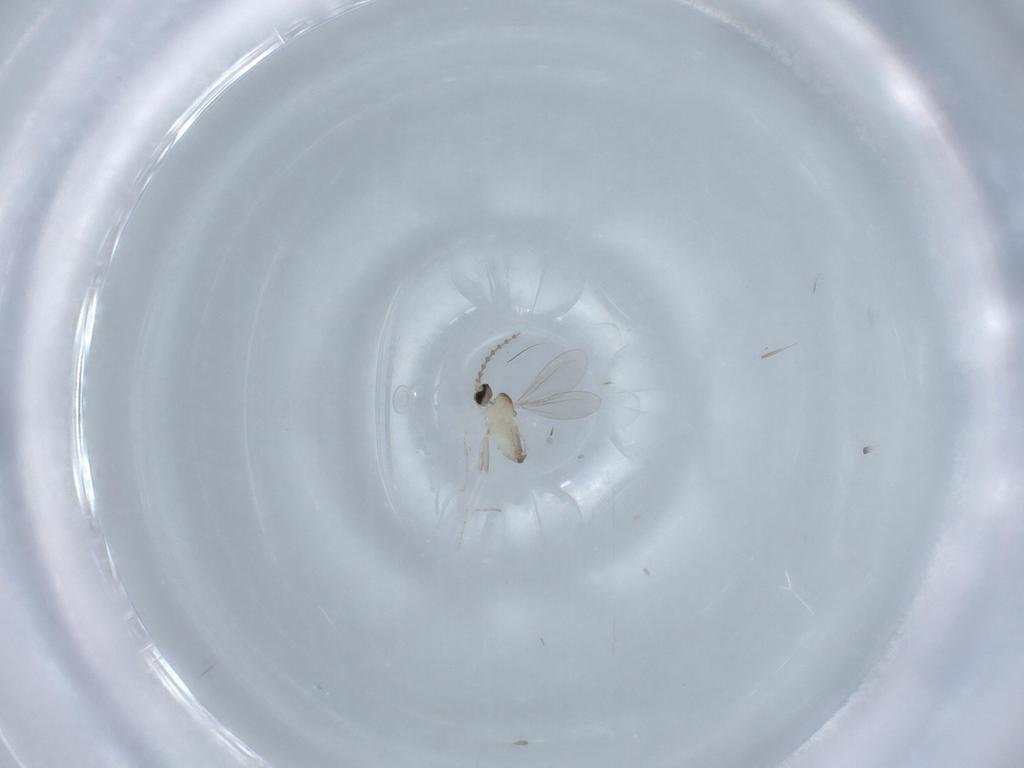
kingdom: Animalia
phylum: Arthropoda
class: Insecta
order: Diptera
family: Cecidomyiidae
